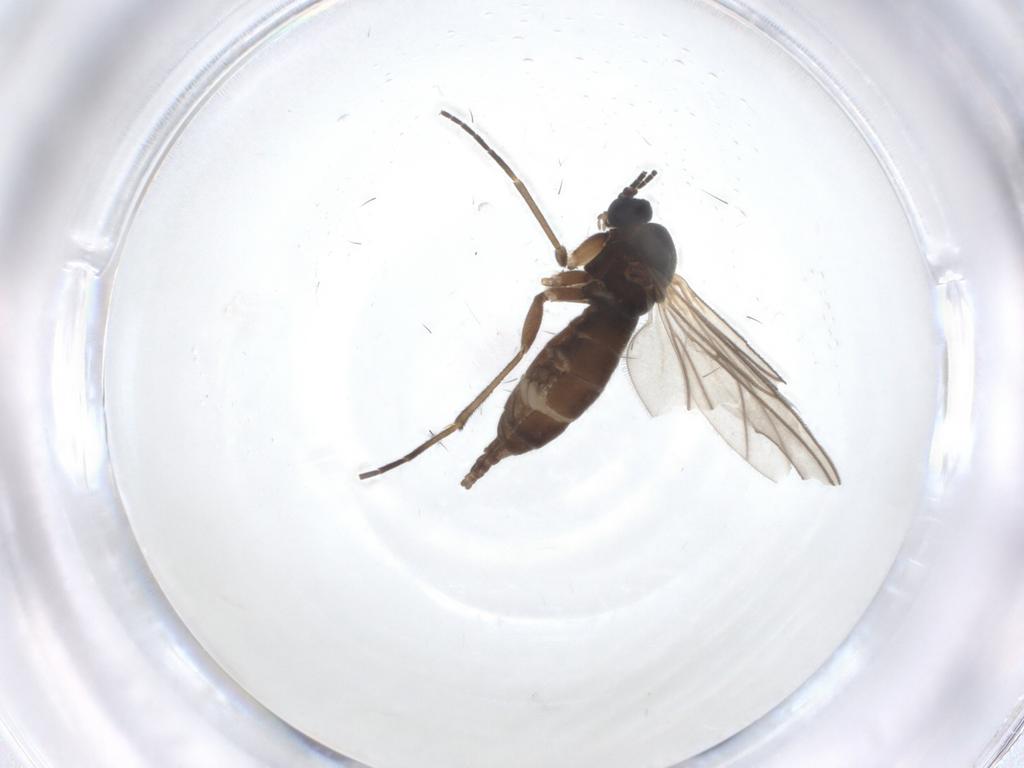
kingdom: Animalia
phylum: Arthropoda
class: Insecta
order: Diptera
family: Sciaridae
